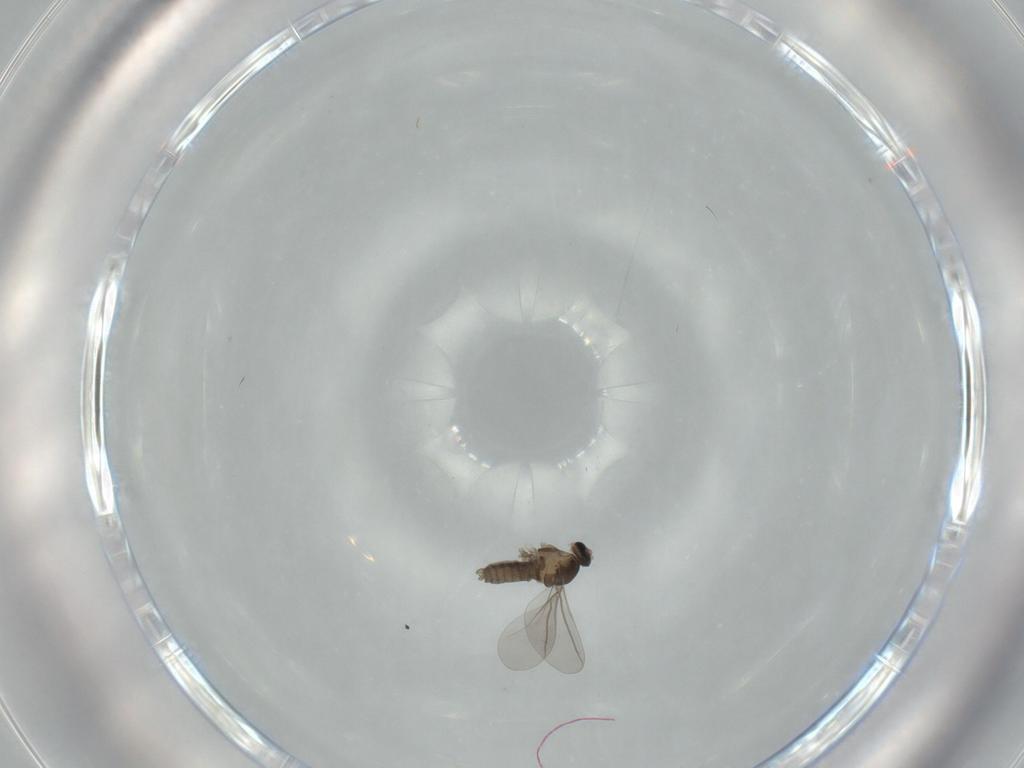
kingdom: Animalia
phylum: Arthropoda
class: Insecta
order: Diptera
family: Cecidomyiidae
